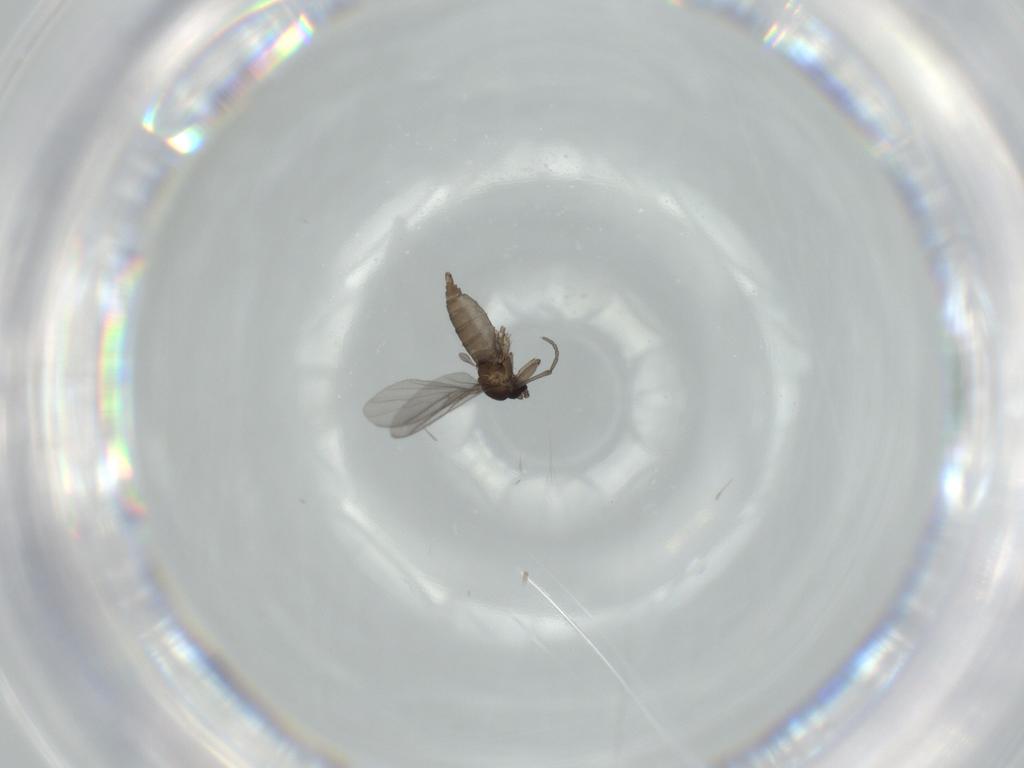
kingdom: Animalia
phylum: Arthropoda
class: Insecta
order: Diptera
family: Sciaridae
